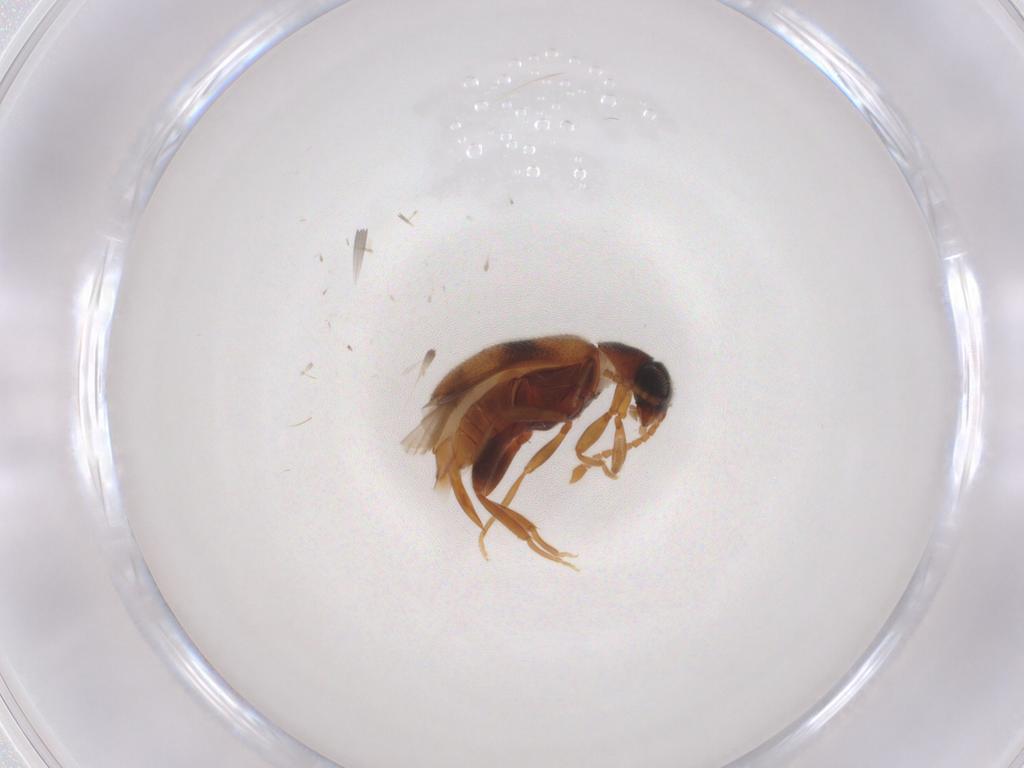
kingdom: Animalia
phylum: Arthropoda
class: Insecta
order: Coleoptera
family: Aderidae
